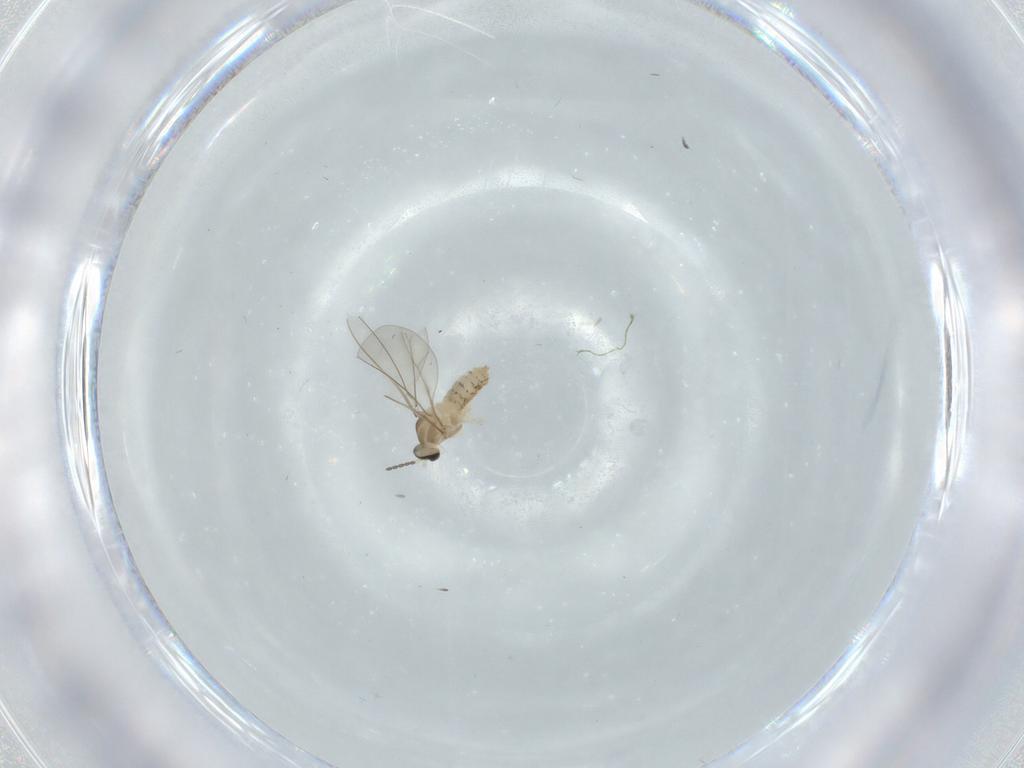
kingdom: Animalia
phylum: Arthropoda
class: Insecta
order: Diptera
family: Cecidomyiidae
